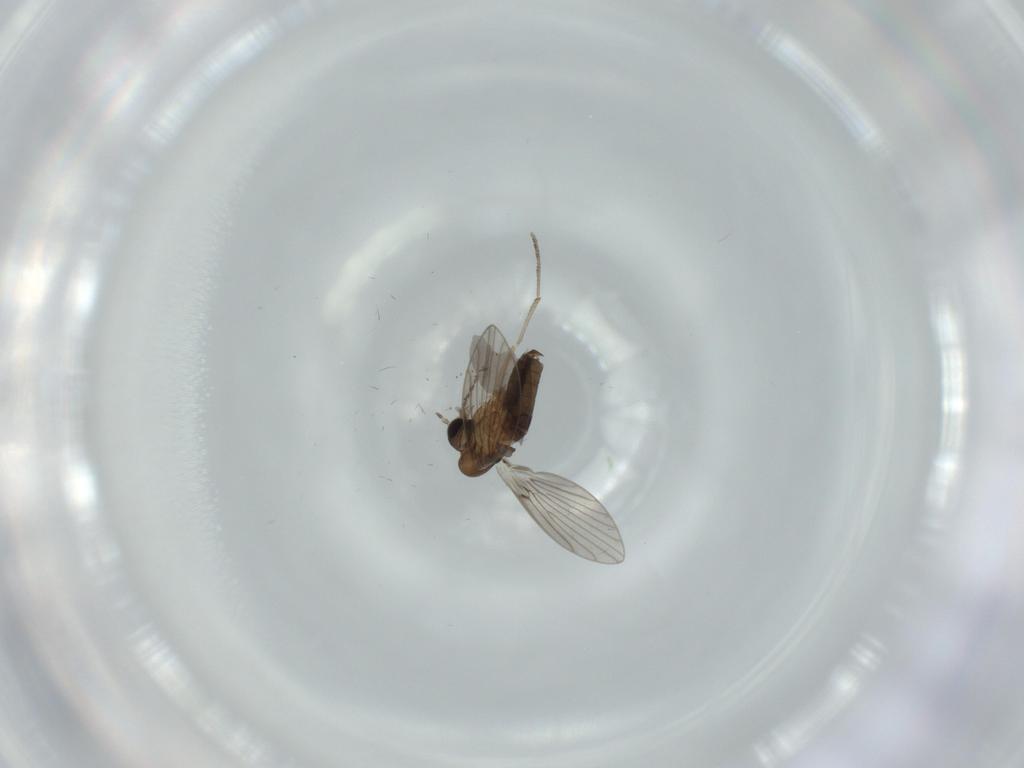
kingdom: Animalia
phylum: Arthropoda
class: Insecta
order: Diptera
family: Psychodidae
